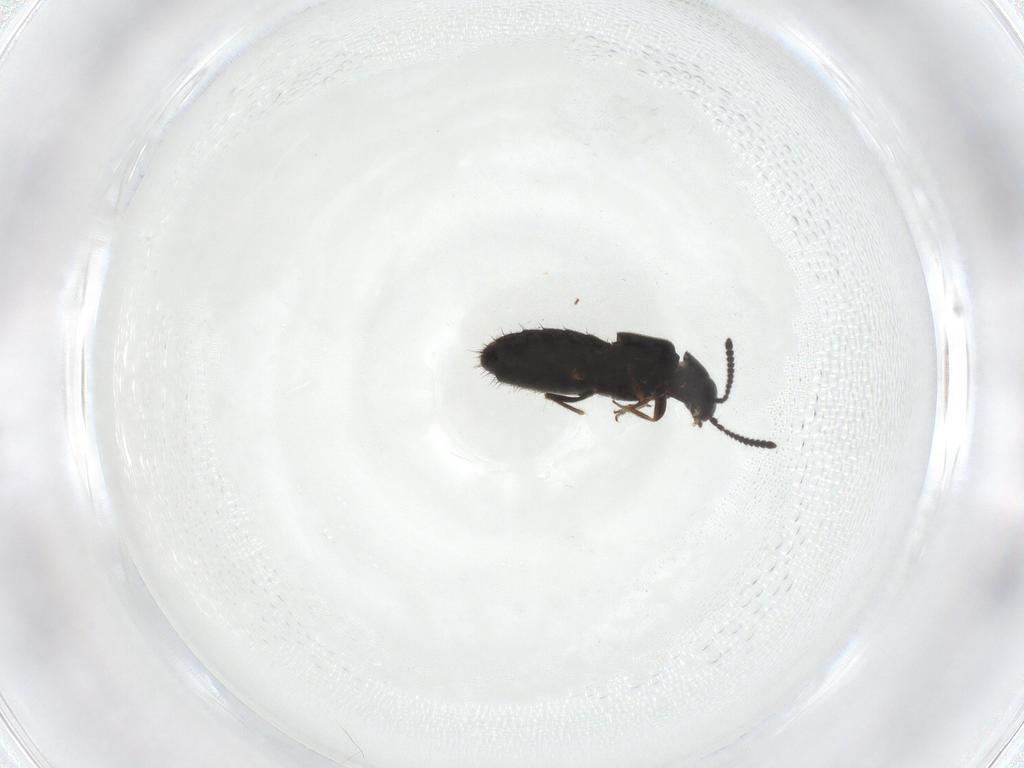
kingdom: Animalia
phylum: Arthropoda
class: Insecta
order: Coleoptera
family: Staphylinidae
